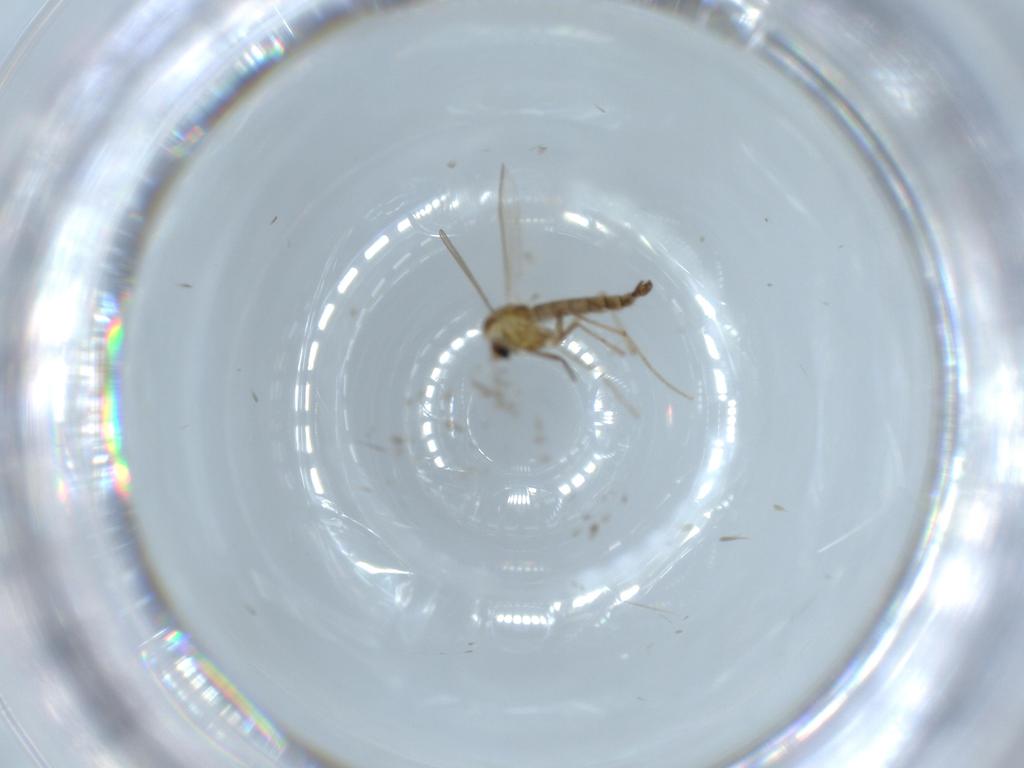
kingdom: Animalia
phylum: Arthropoda
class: Insecta
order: Diptera
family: Chironomidae
